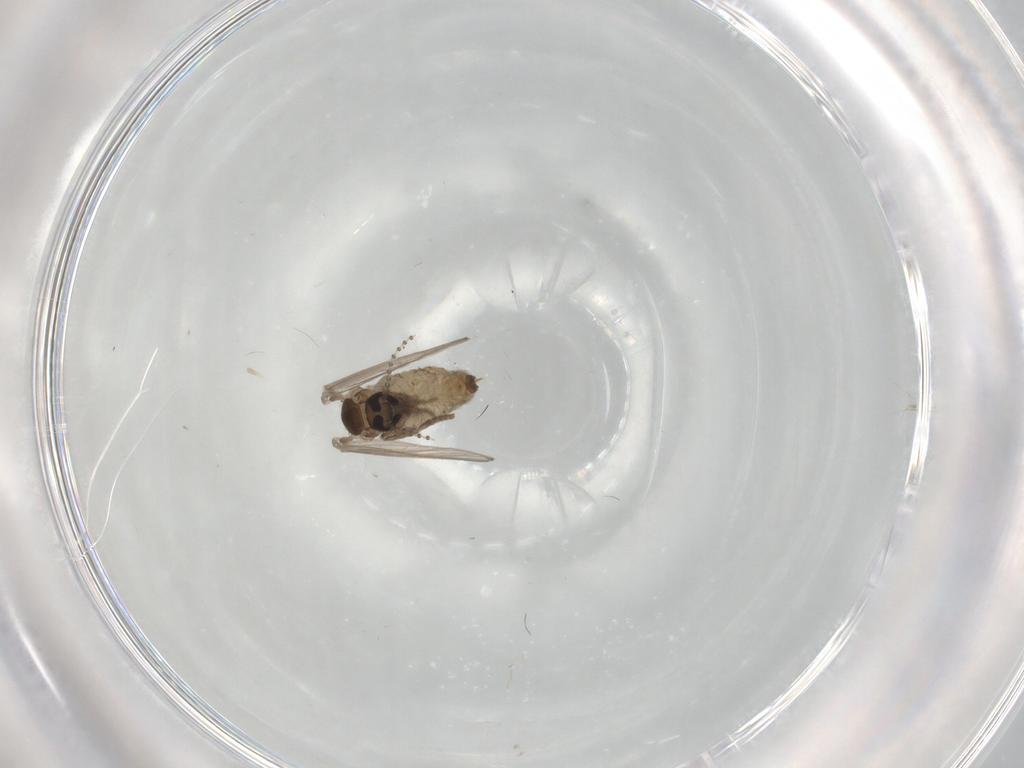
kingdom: Animalia
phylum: Arthropoda
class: Insecta
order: Diptera
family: Psychodidae
